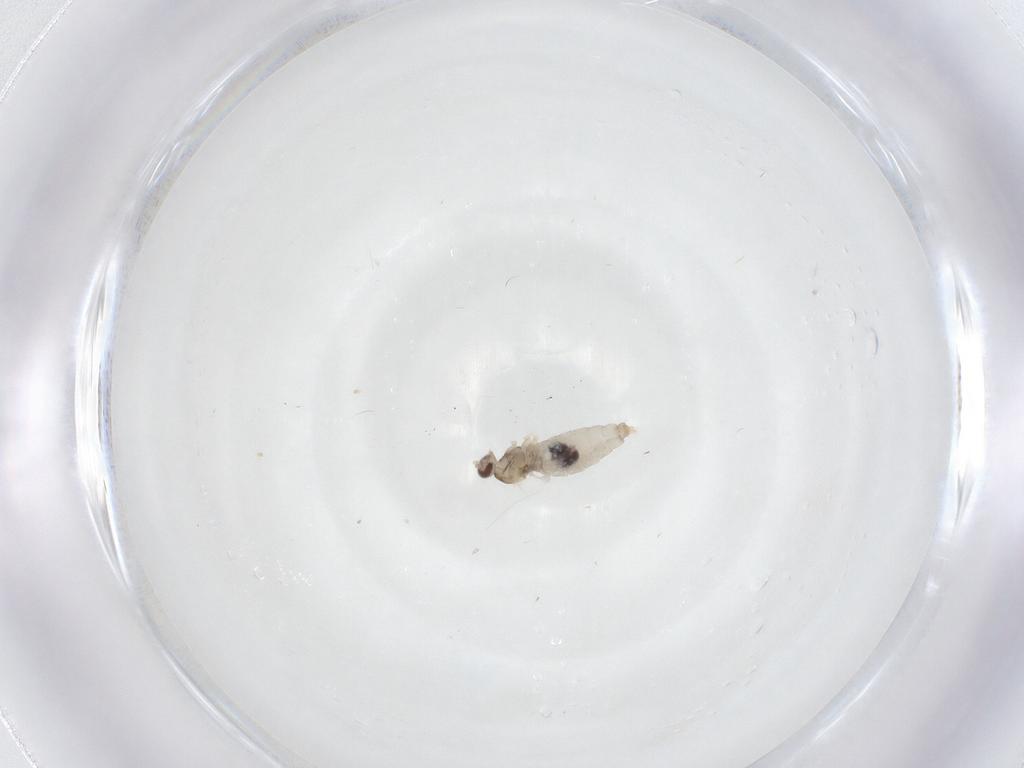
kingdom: Animalia
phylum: Arthropoda
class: Insecta
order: Diptera
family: Cecidomyiidae
